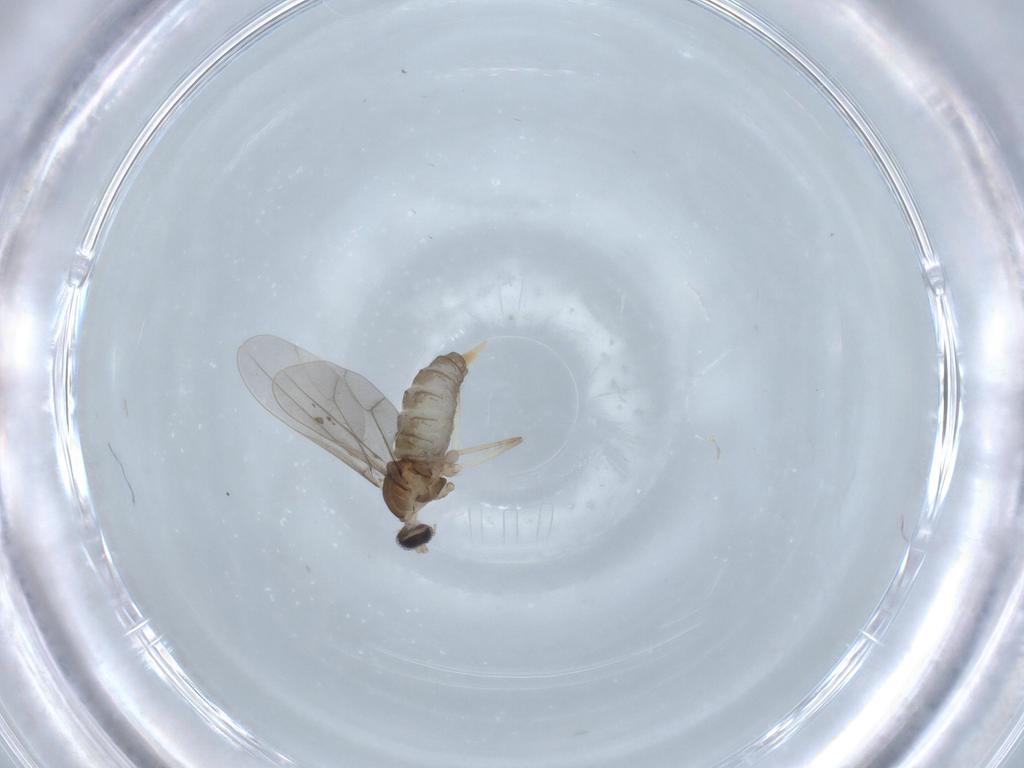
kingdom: Animalia
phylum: Arthropoda
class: Insecta
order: Diptera
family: Cecidomyiidae
